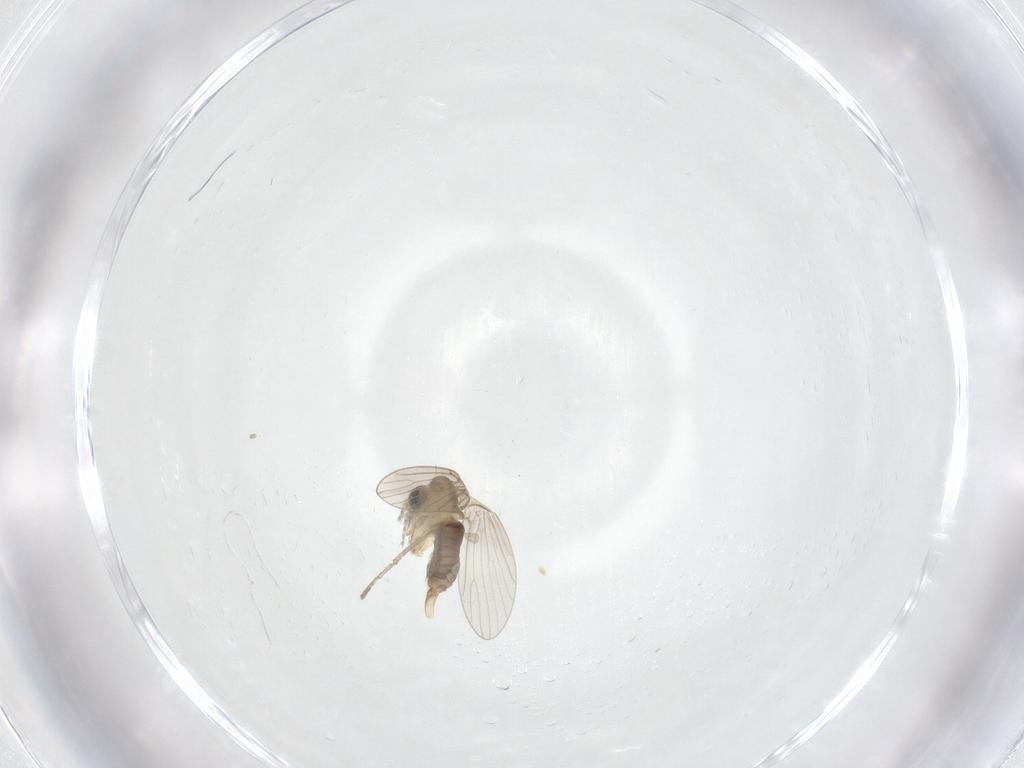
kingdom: Animalia
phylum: Arthropoda
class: Insecta
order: Diptera
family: Psychodidae
